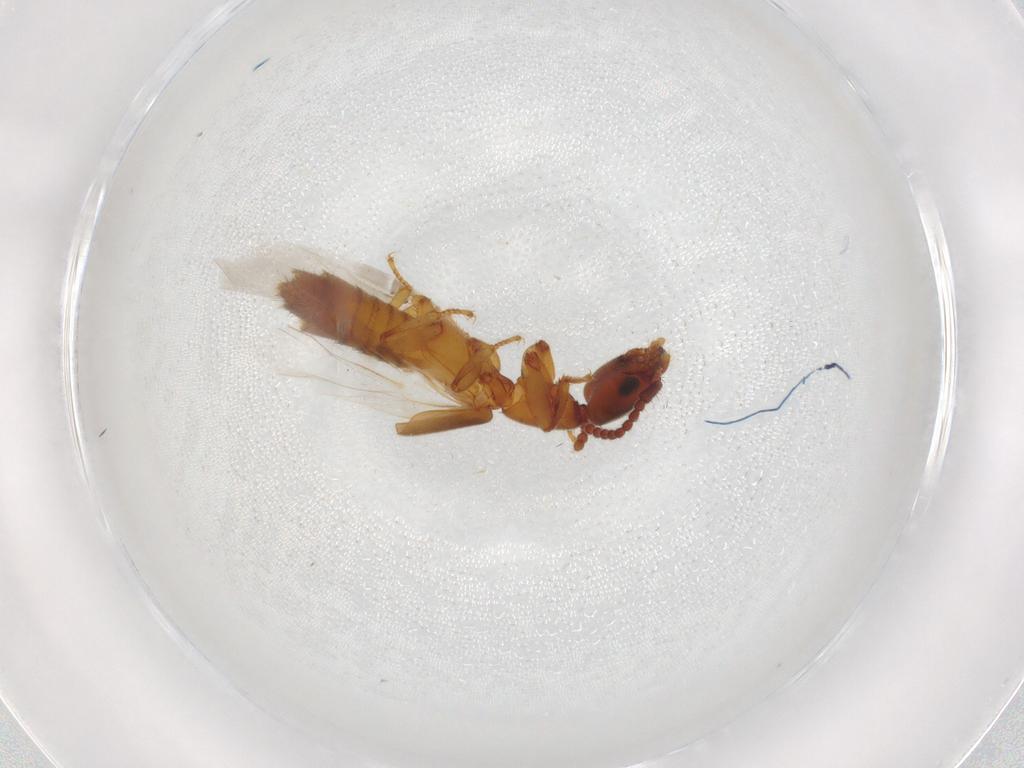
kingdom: Animalia
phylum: Arthropoda
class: Insecta
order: Coleoptera
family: Staphylinidae
